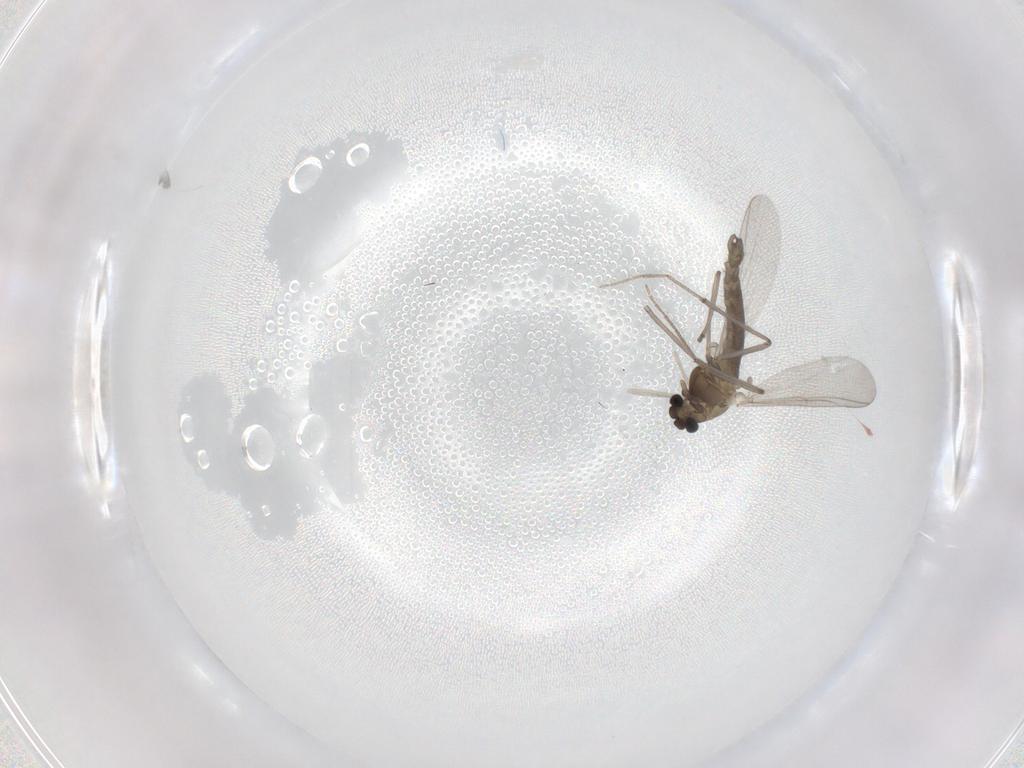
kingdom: Animalia
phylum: Arthropoda
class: Insecta
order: Diptera
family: Chironomidae
